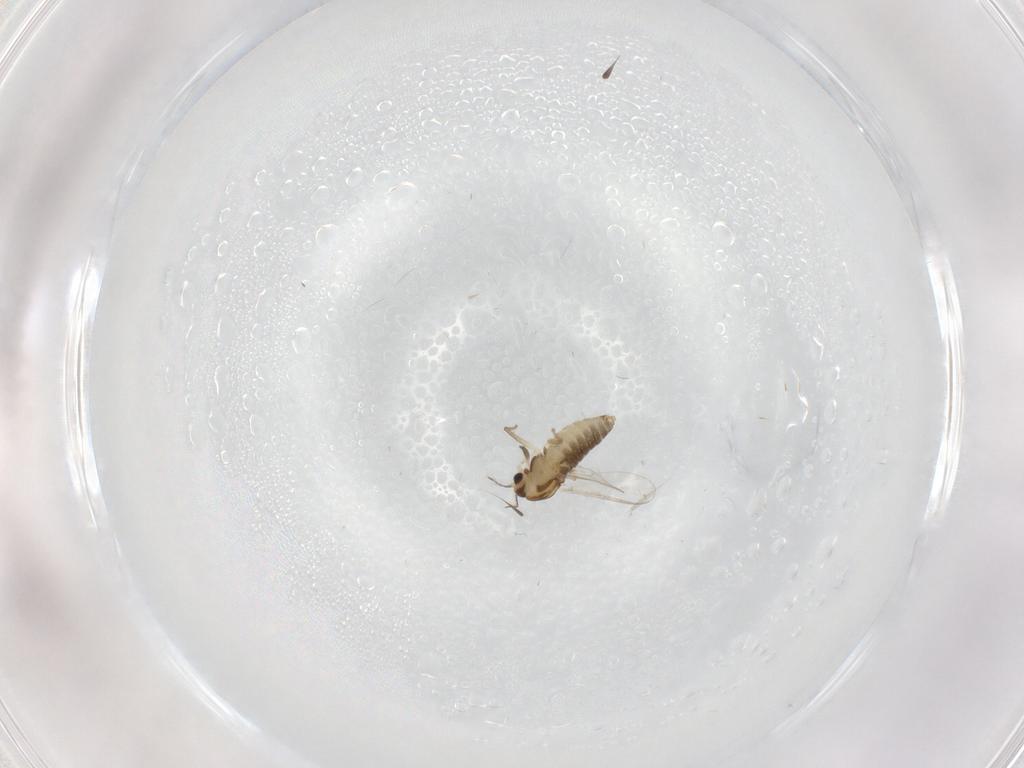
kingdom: Animalia
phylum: Arthropoda
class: Insecta
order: Diptera
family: Chironomidae
